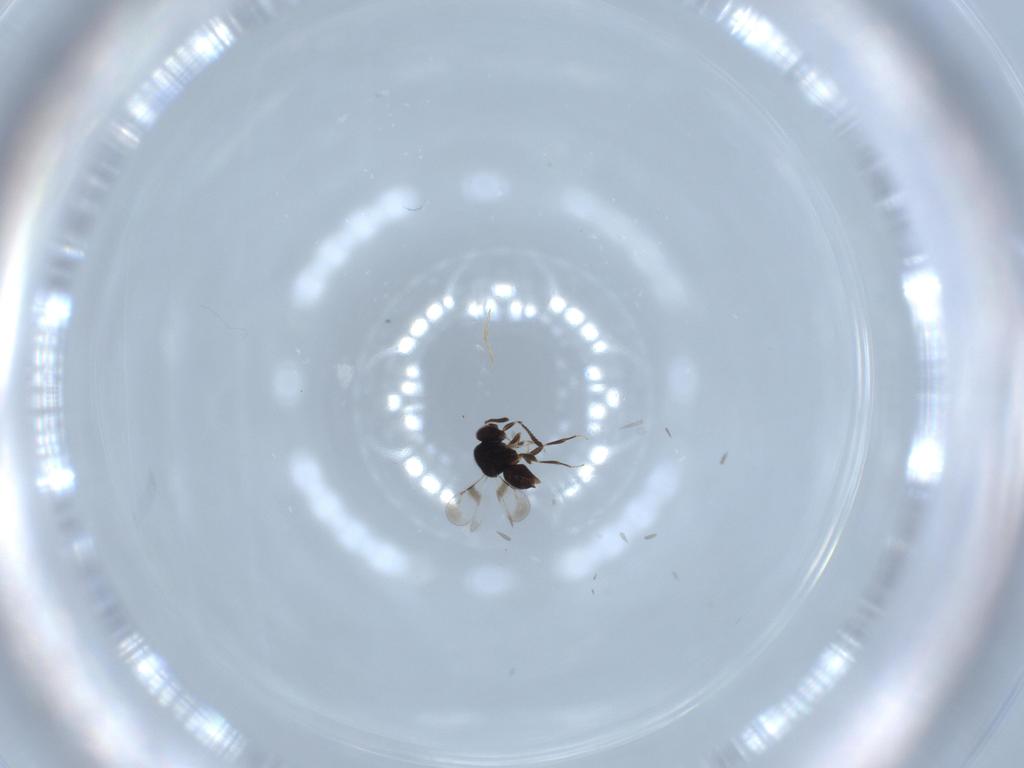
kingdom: Animalia
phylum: Arthropoda
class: Insecta
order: Hymenoptera
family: Pompilidae
